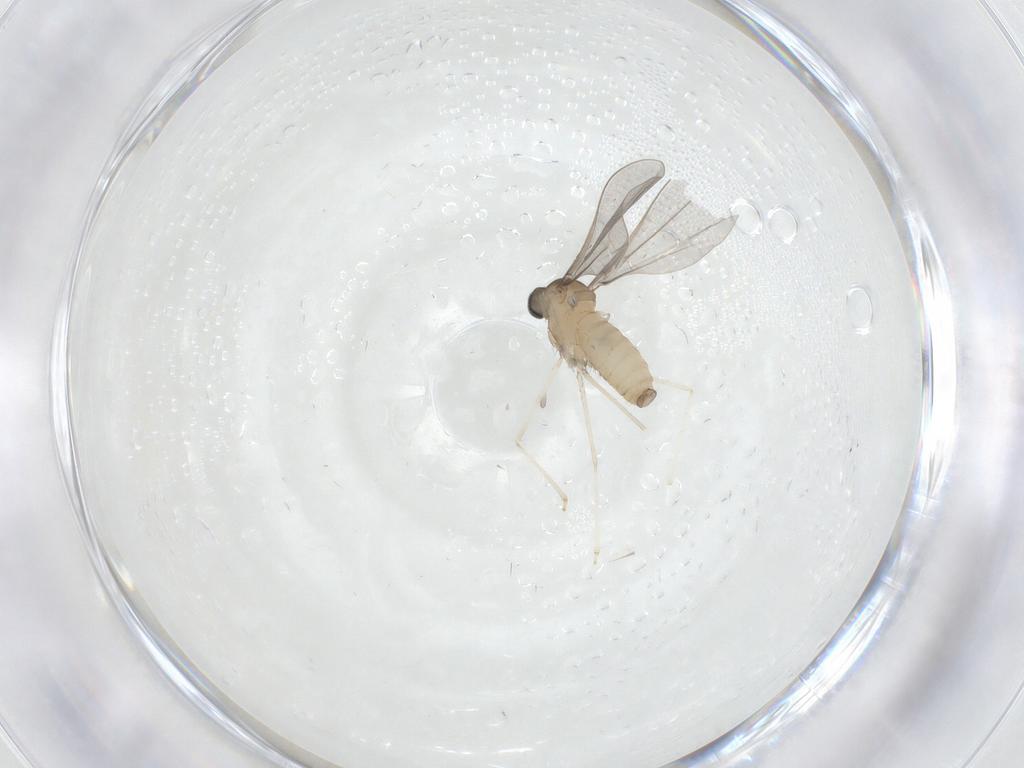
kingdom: Animalia
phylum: Arthropoda
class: Insecta
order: Diptera
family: Cecidomyiidae
